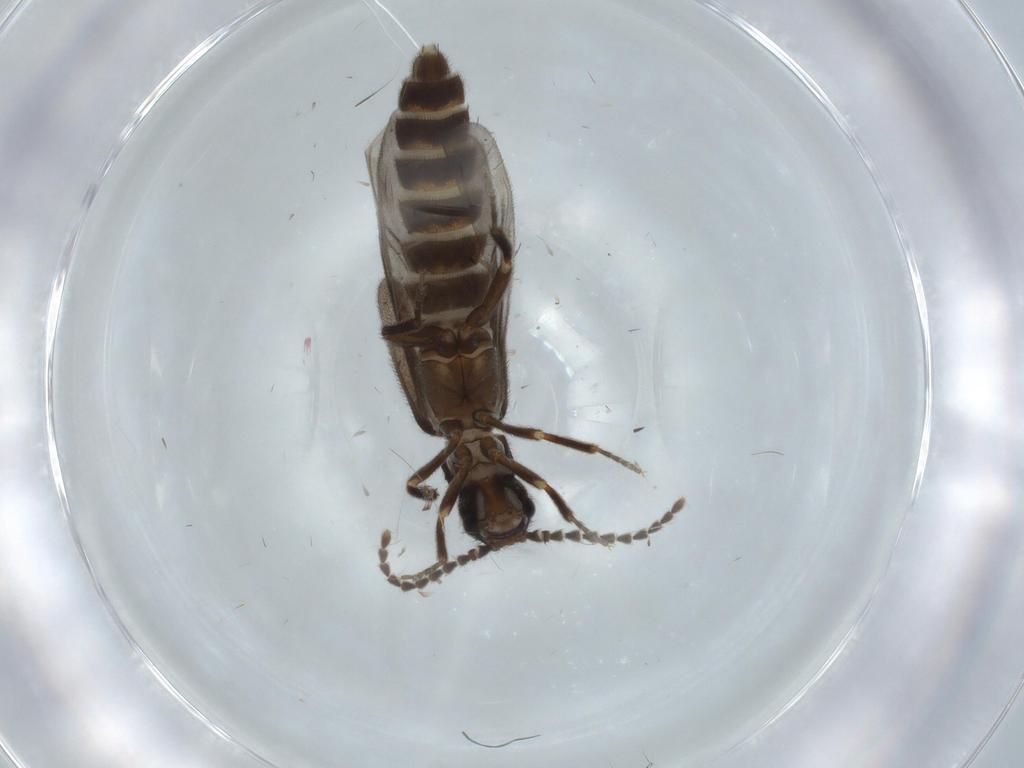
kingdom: Animalia
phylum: Arthropoda
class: Insecta
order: Coleoptera
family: Omethidae
